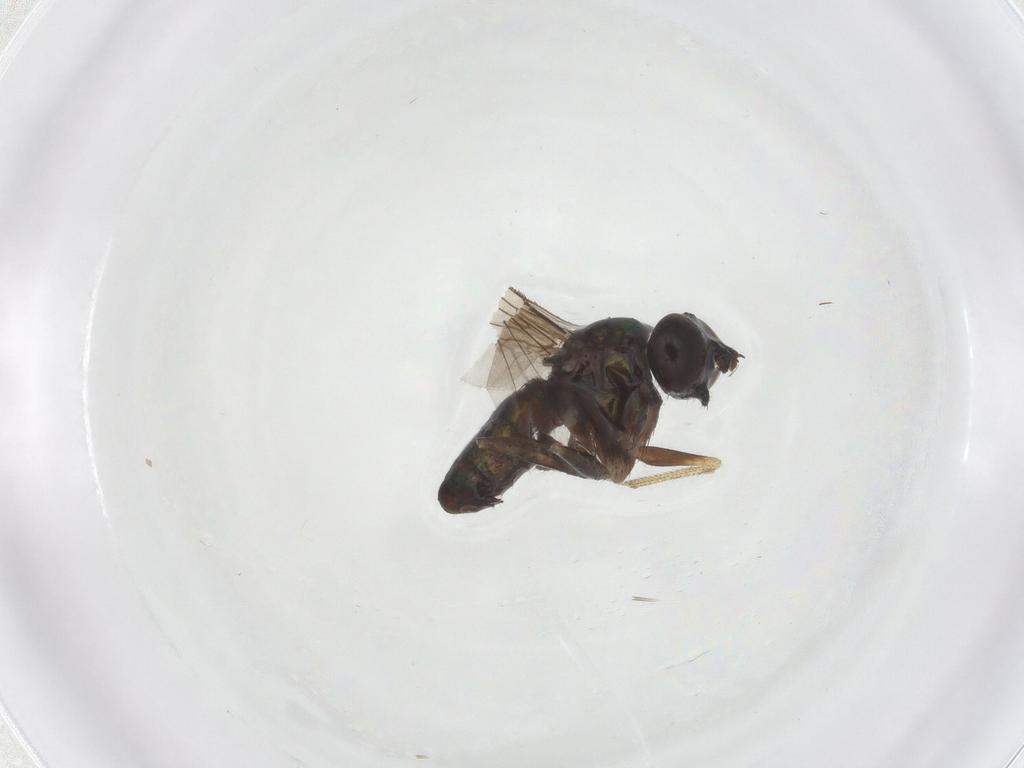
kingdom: Animalia
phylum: Arthropoda
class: Insecta
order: Diptera
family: Dolichopodidae
